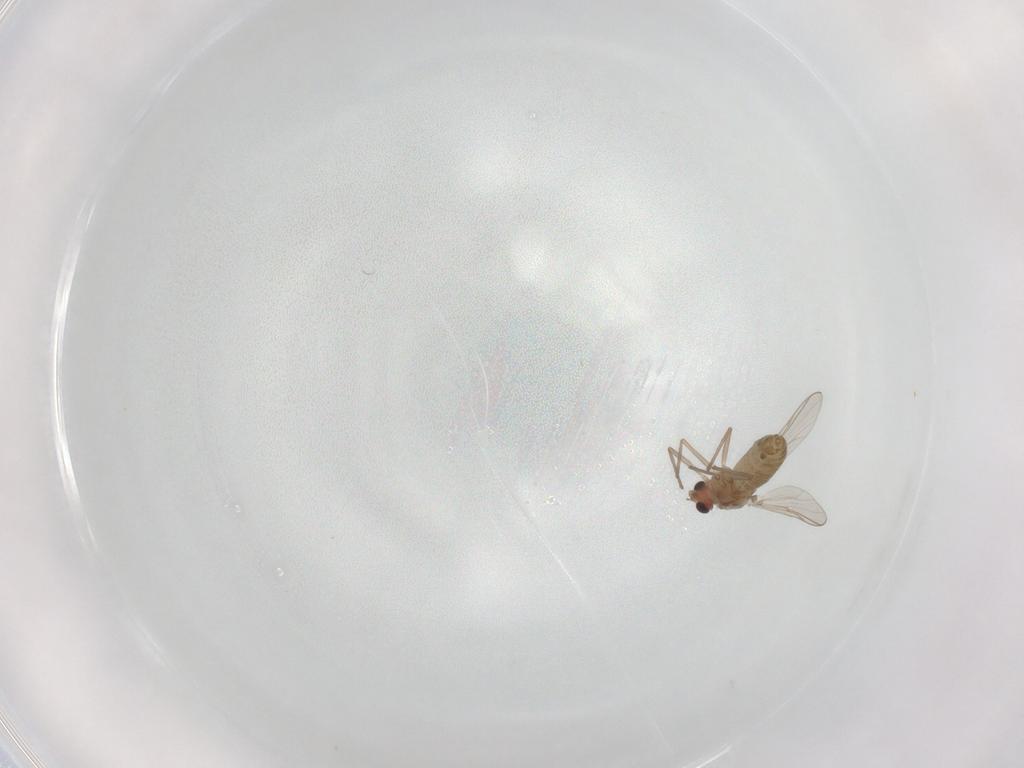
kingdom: Animalia
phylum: Arthropoda
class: Insecta
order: Diptera
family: Chironomidae
